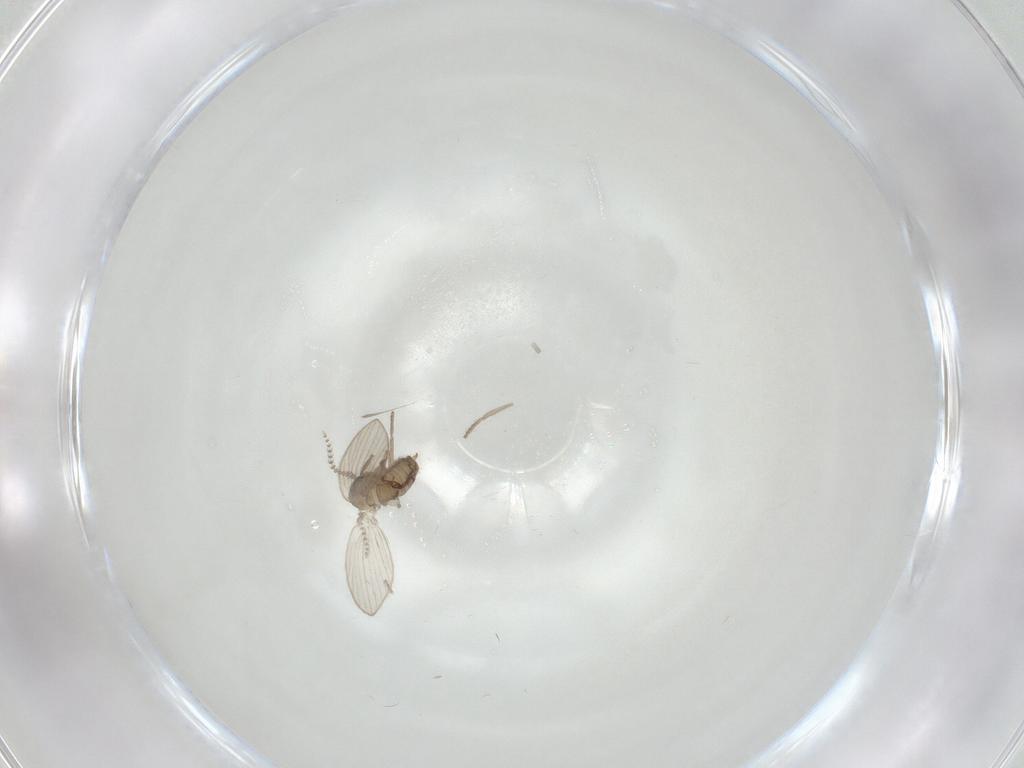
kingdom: Animalia
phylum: Arthropoda
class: Insecta
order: Diptera
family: Psychodidae
